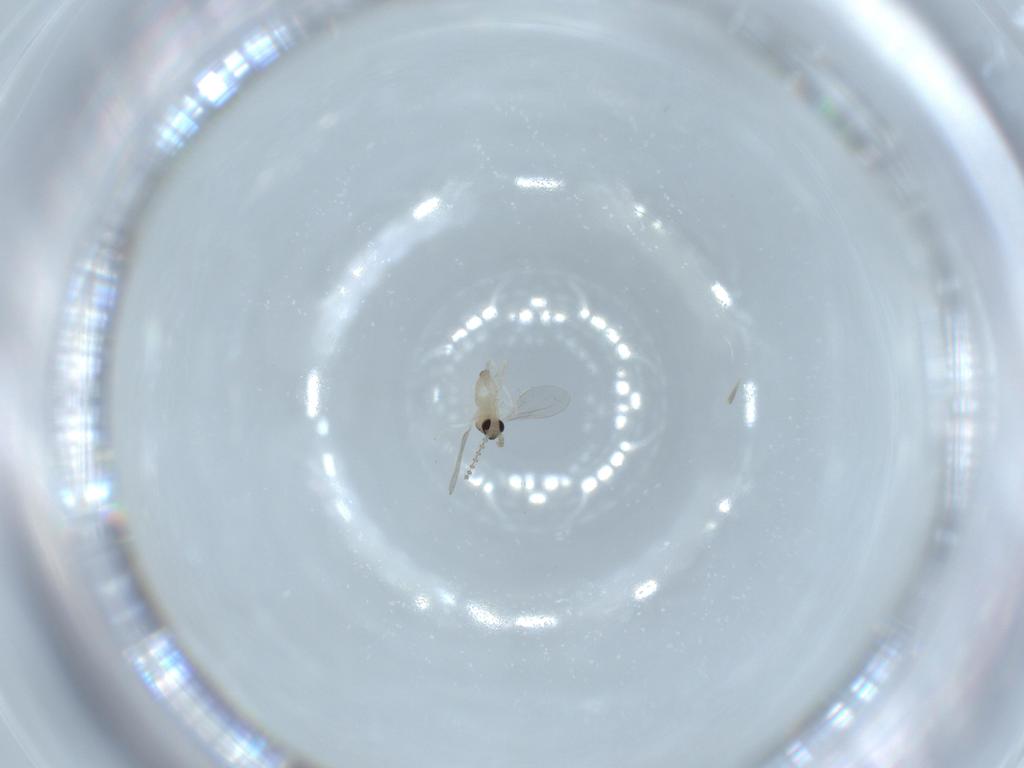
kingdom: Animalia
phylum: Arthropoda
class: Insecta
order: Diptera
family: Cecidomyiidae
